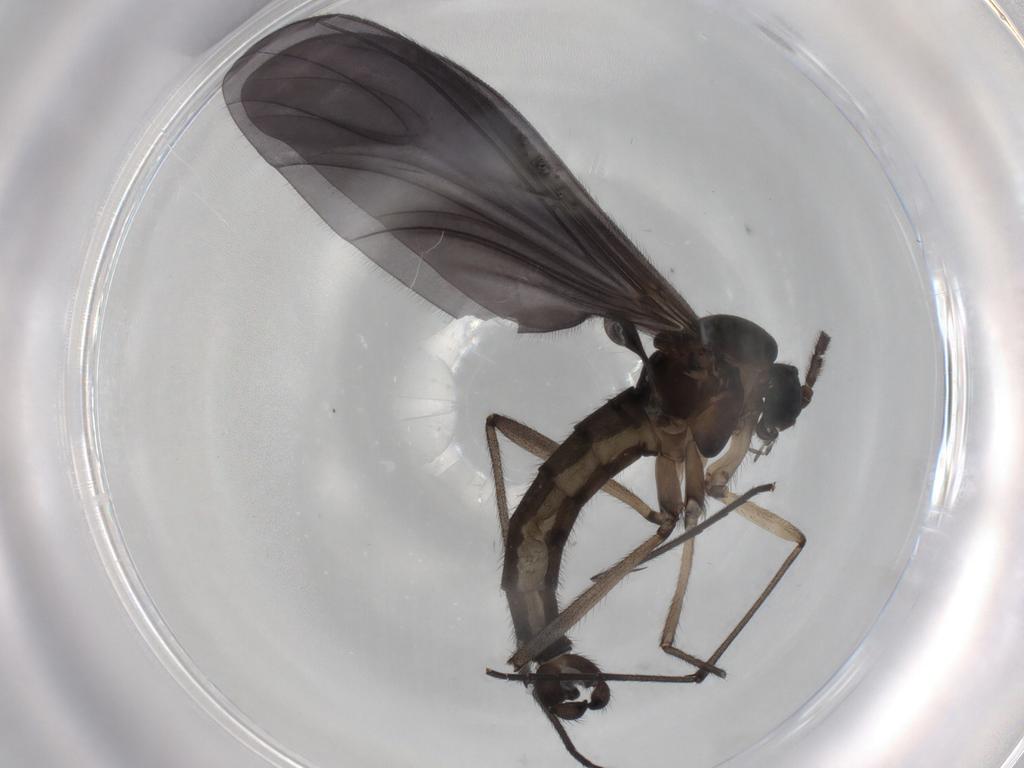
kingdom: Animalia
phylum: Arthropoda
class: Insecta
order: Diptera
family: Sciaridae
